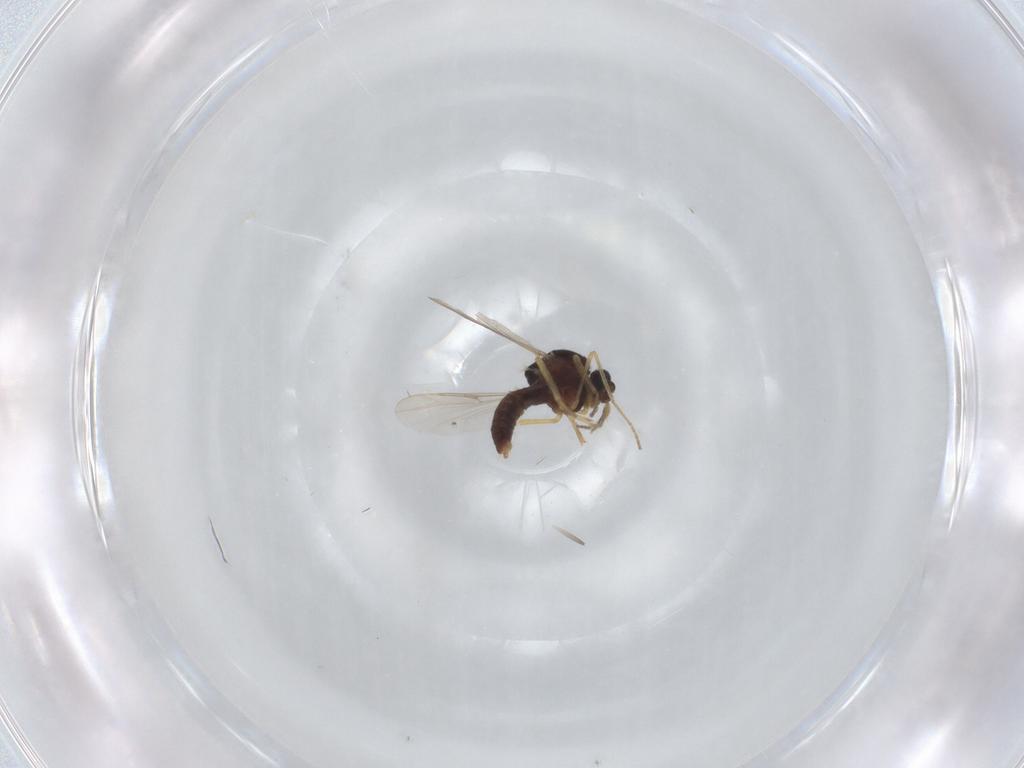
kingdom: Animalia
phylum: Arthropoda
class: Insecta
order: Diptera
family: Ceratopogonidae
